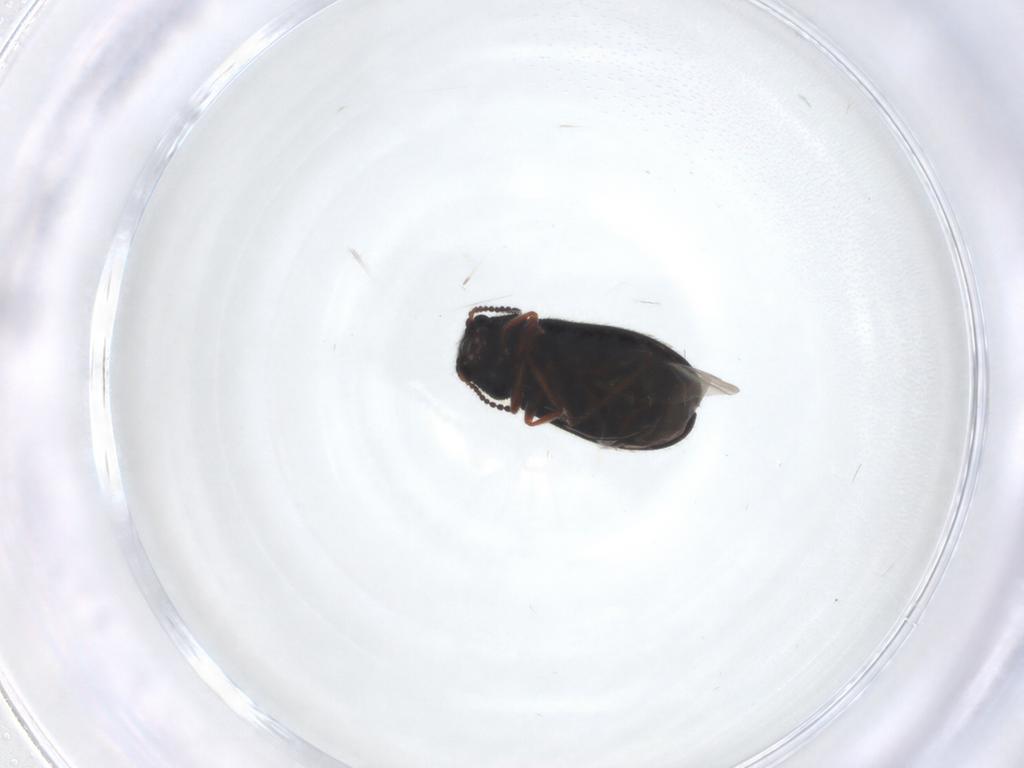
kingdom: Animalia
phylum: Arthropoda
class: Insecta
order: Coleoptera
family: Melyridae
